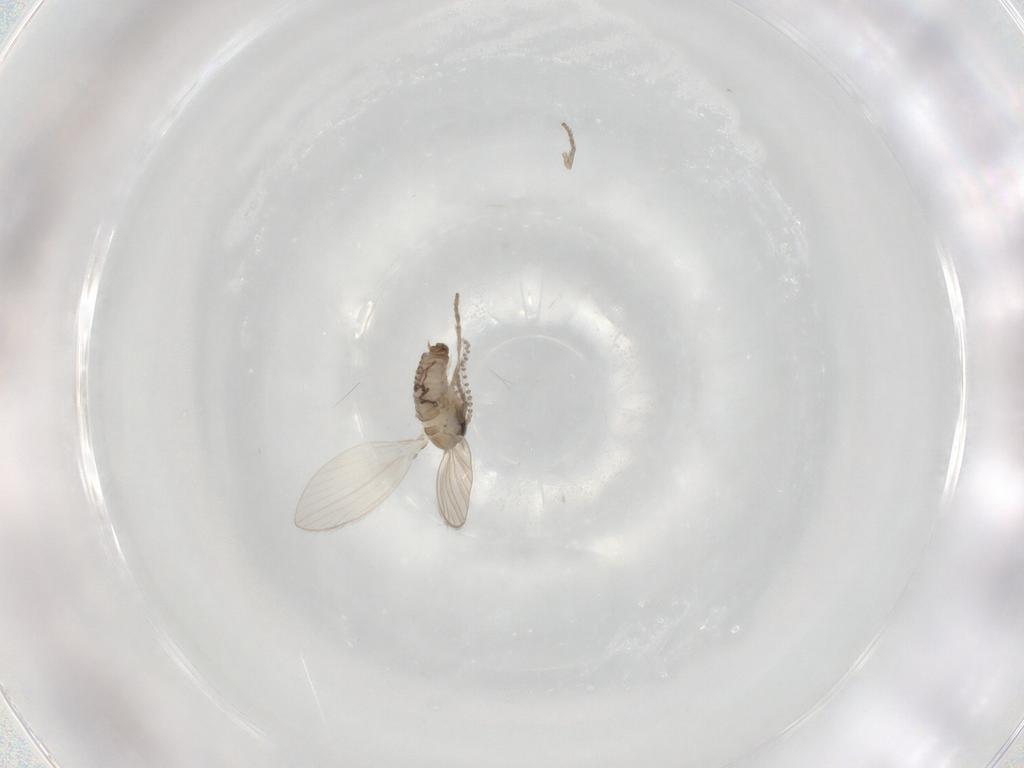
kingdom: Animalia
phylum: Arthropoda
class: Insecta
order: Diptera
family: Psychodidae
